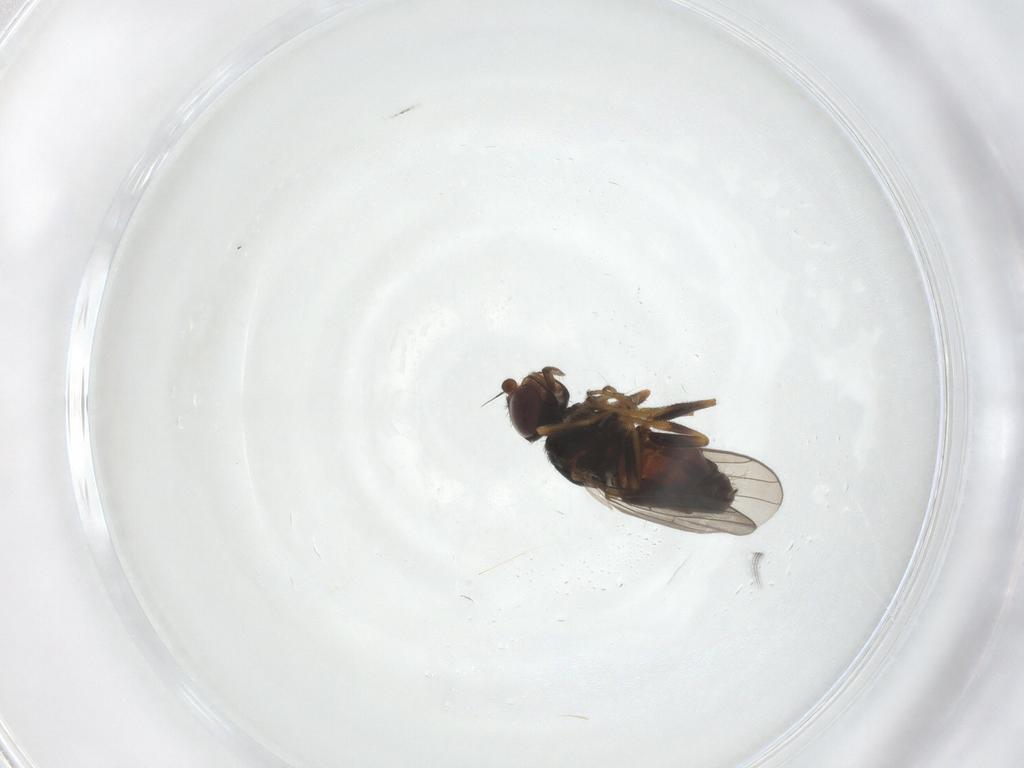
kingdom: Animalia
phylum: Arthropoda
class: Insecta
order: Diptera
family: Chloropidae
